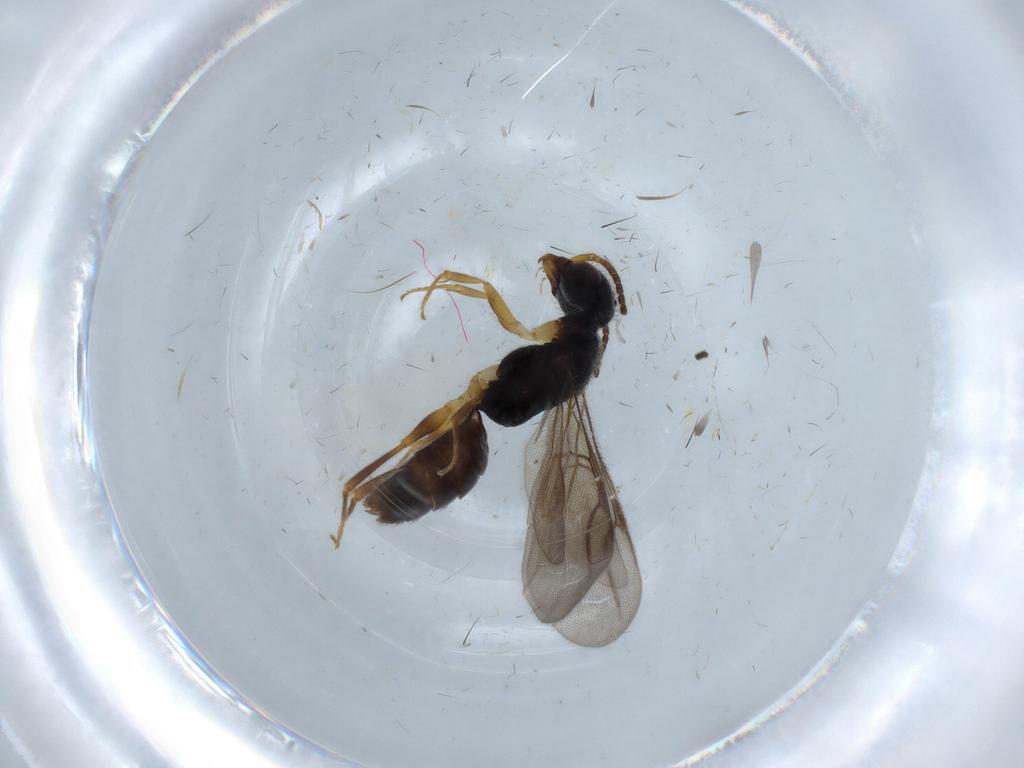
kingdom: Animalia
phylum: Arthropoda
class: Insecta
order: Hymenoptera
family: Bethylidae
